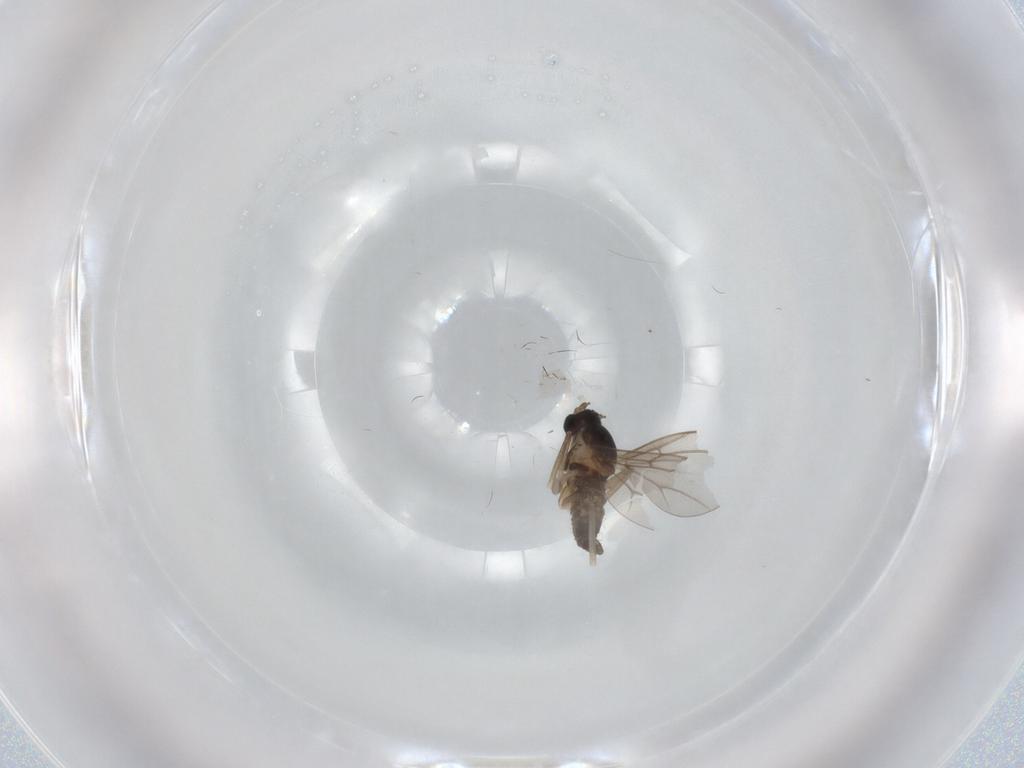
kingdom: Animalia
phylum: Arthropoda
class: Insecta
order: Diptera
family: Cecidomyiidae
